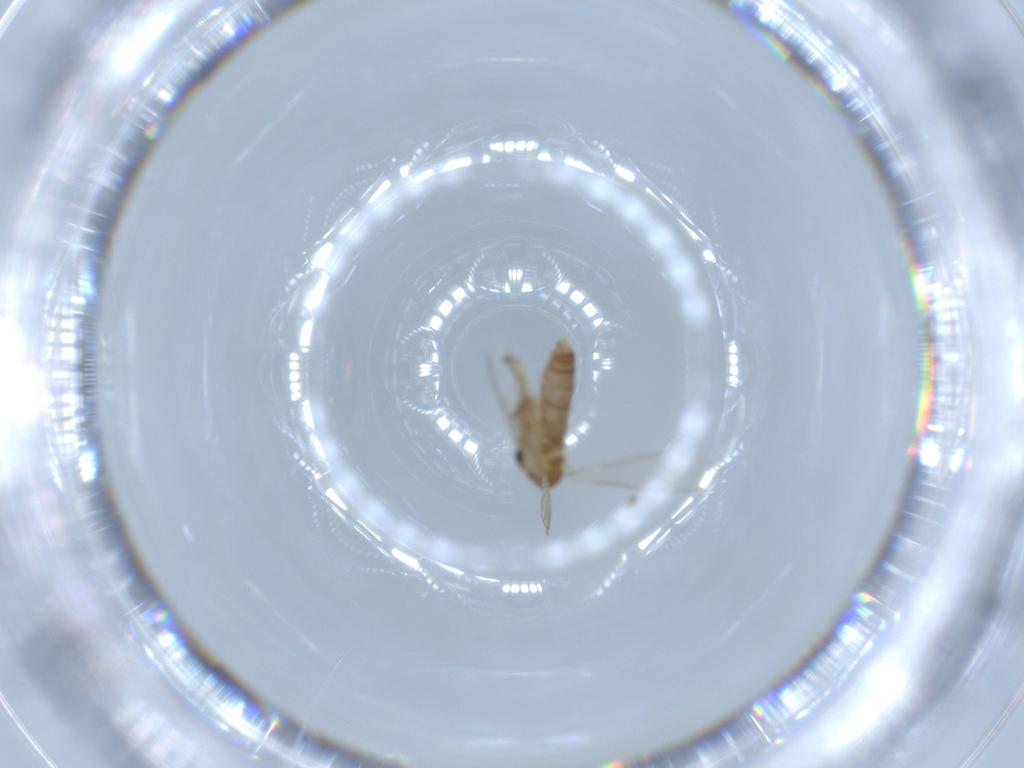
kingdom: Animalia
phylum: Arthropoda
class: Insecta
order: Diptera
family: Psychodidae
